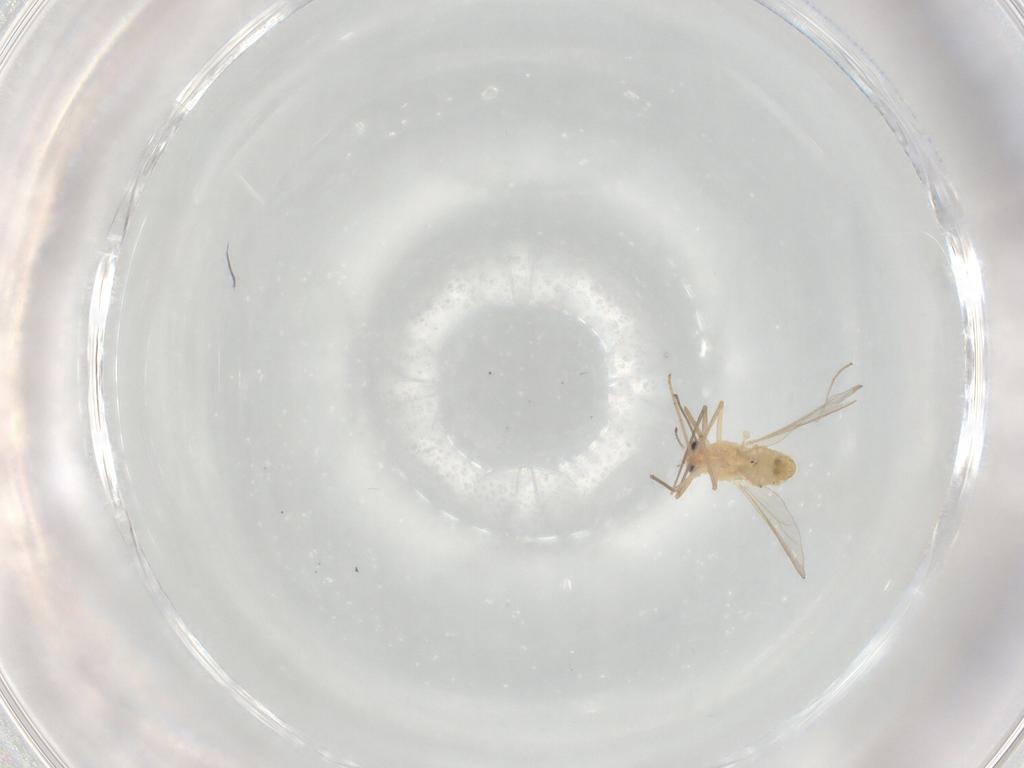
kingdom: Animalia
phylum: Arthropoda
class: Insecta
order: Diptera
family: Chironomidae
